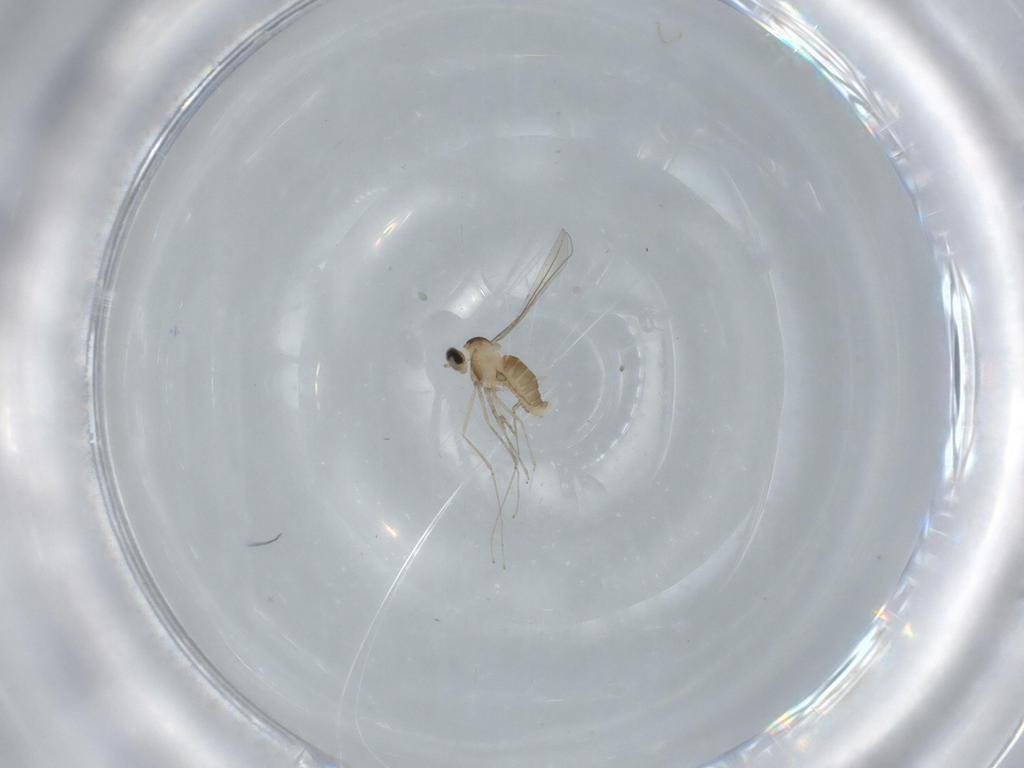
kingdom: Animalia
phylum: Arthropoda
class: Insecta
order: Diptera
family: Cecidomyiidae
